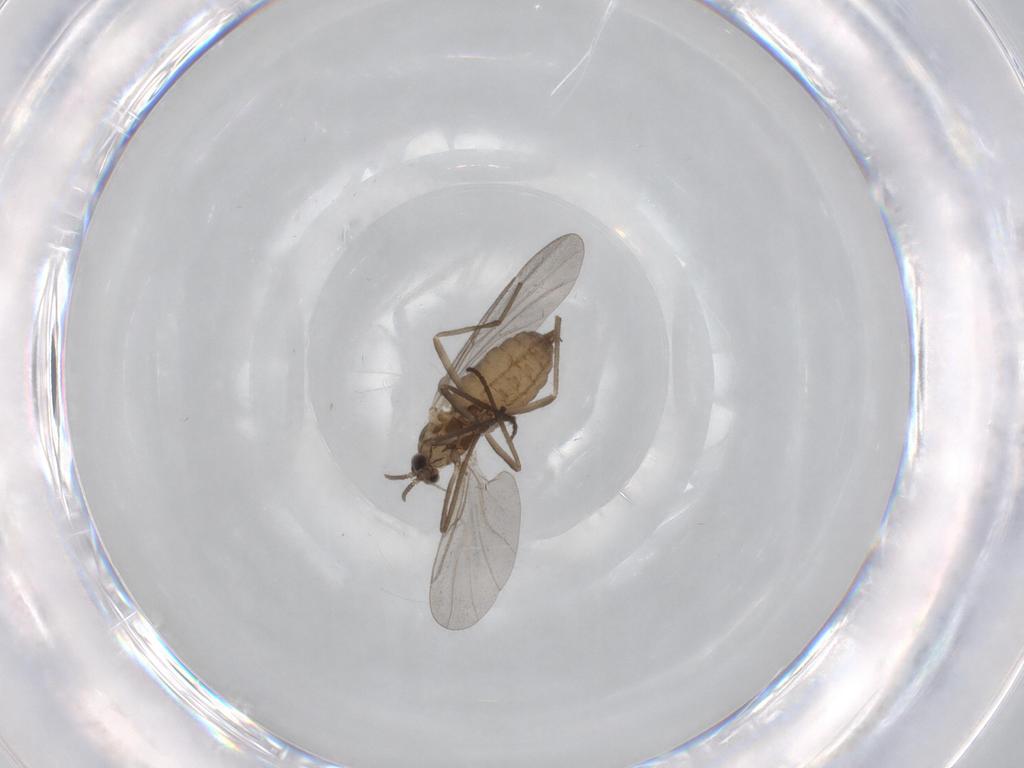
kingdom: Animalia
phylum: Arthropoda
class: Insecta
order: Diptera
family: Cecidomyiidae
